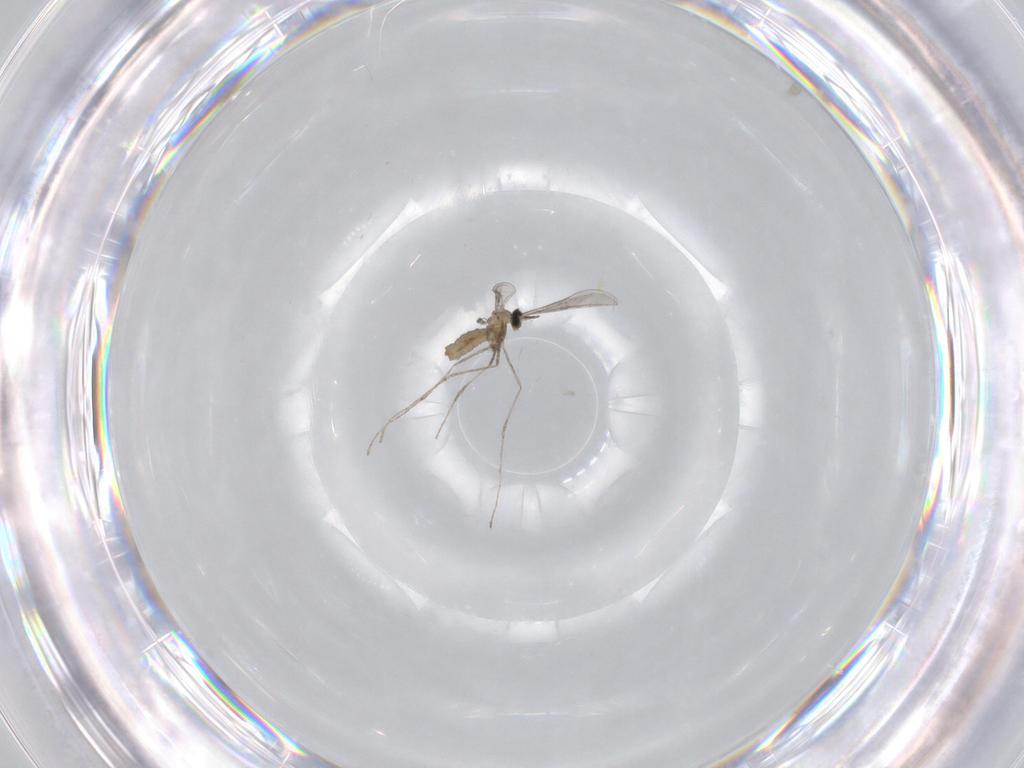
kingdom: Animalia
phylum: Arthropoda
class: Insecta
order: Diptera
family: Cecidomyiidae
